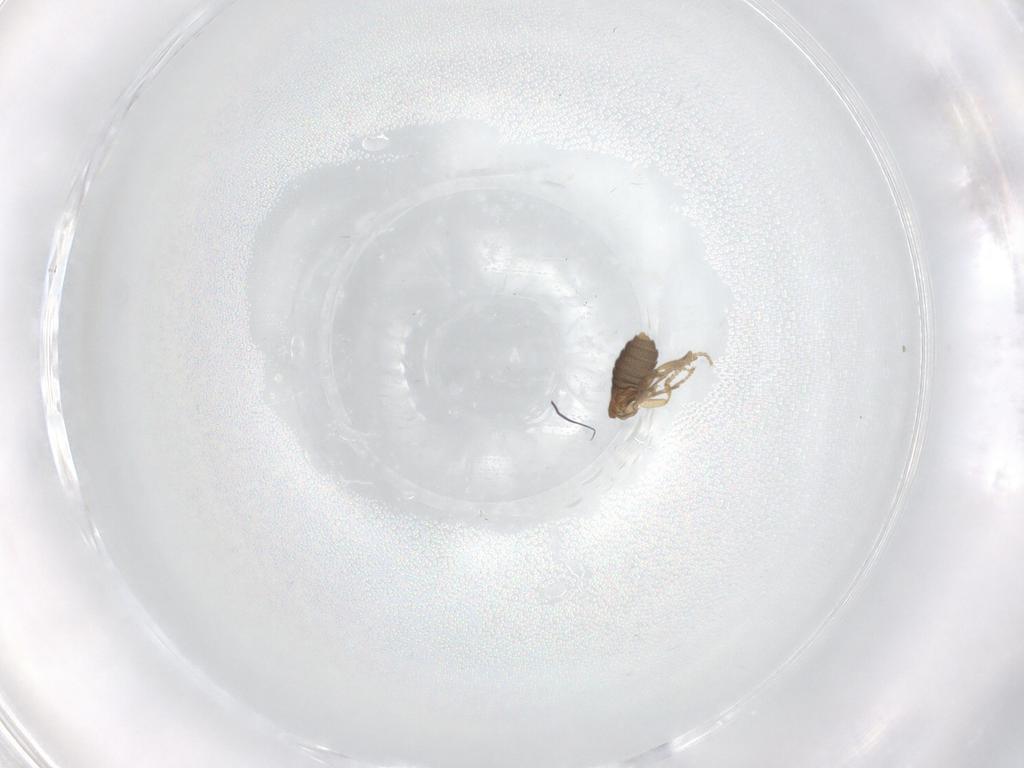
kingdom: Animalia
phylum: Arthropoda
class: Insecta
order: Diptera
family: Chironomidae
